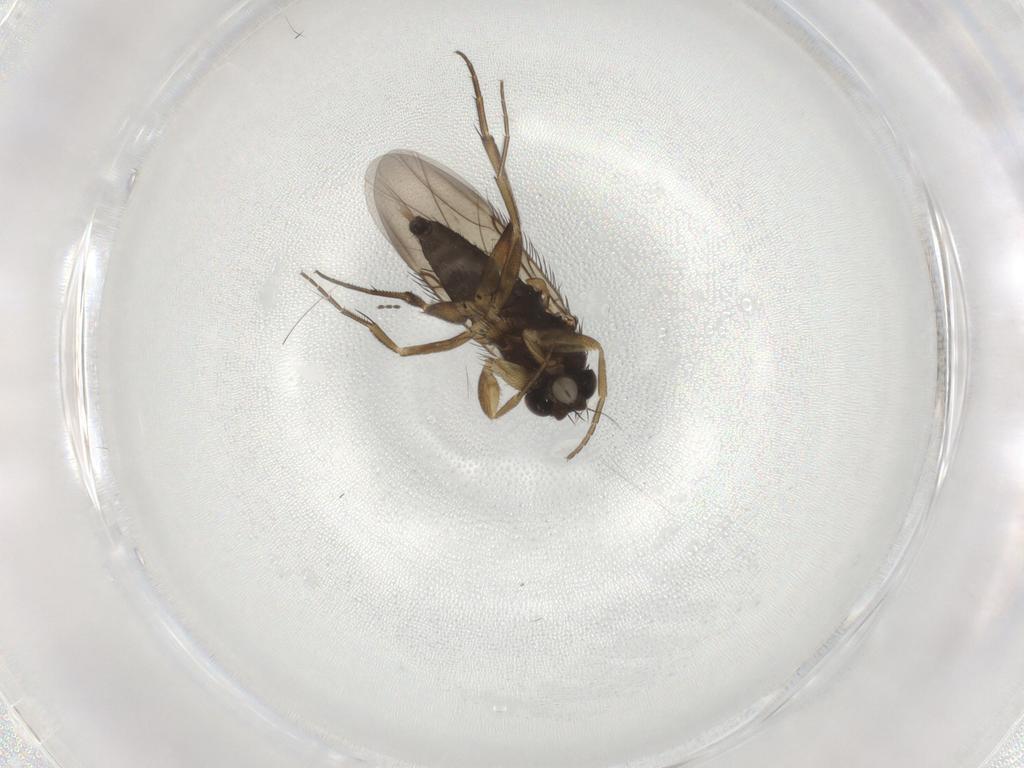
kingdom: Animalia
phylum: Arthropoda
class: Insecta
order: Diptera
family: Phoridae
